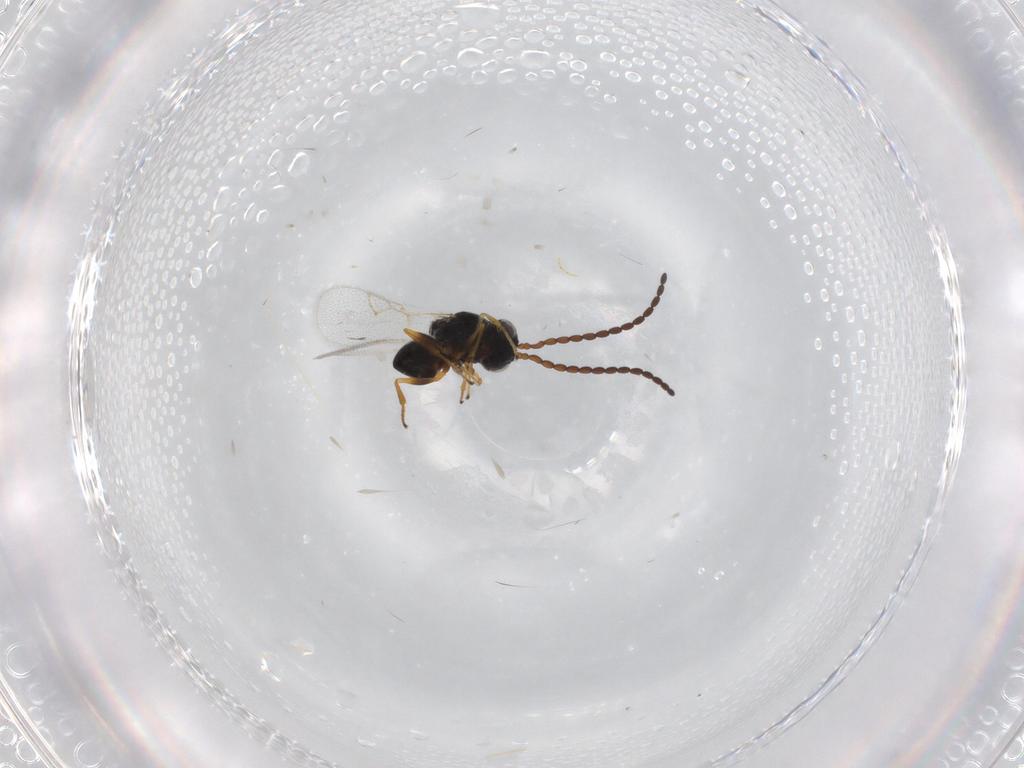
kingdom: Animalia
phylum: Arthropoda
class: Insecta
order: Hymenoptera
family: Figitidae
